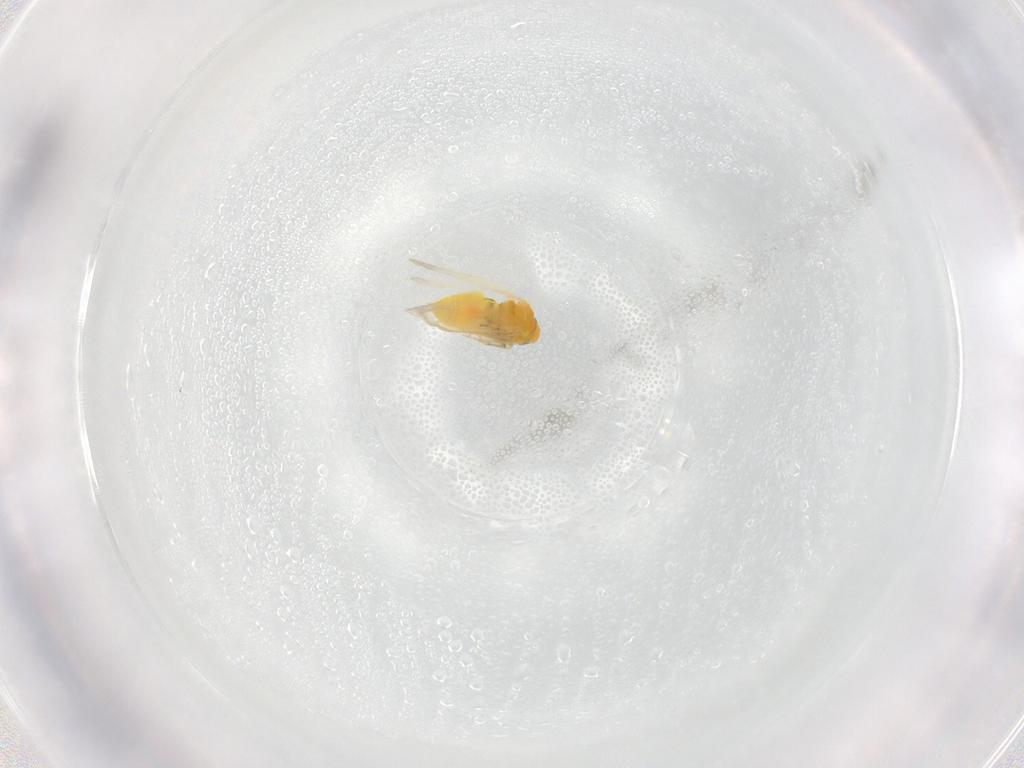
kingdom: Animalia
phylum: Arthropoda
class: Insecta
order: Hemiptera
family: Aleyrodidae
